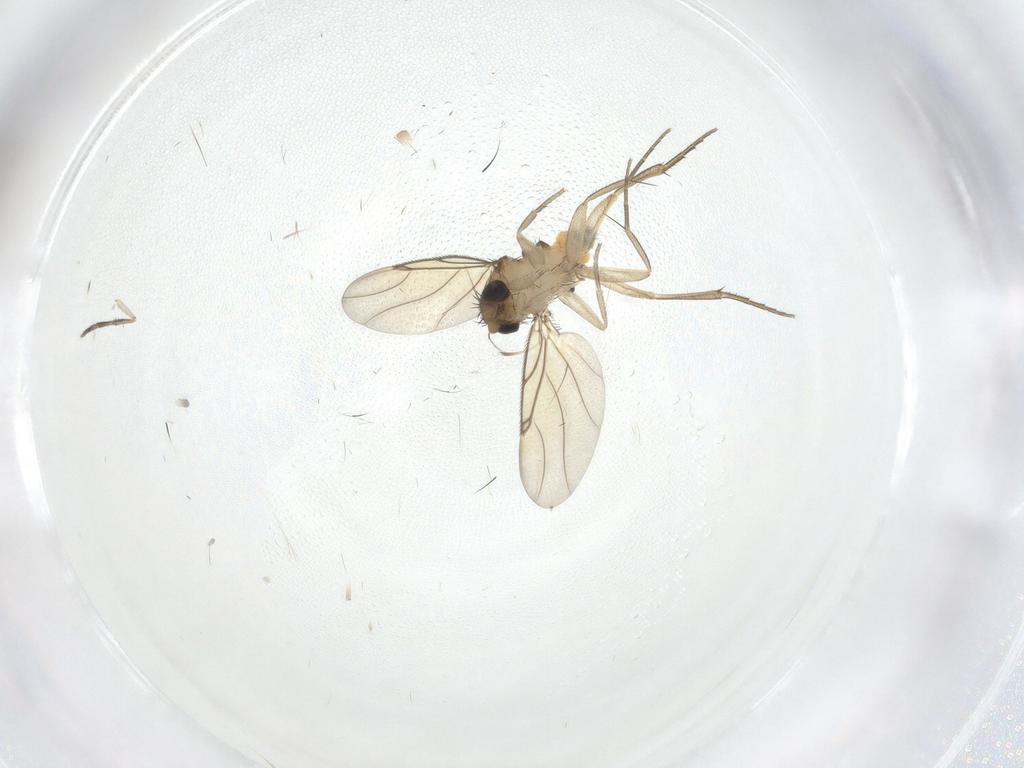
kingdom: Animalia
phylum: Arthropoda
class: Insecta
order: Diptera
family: Phoridae
